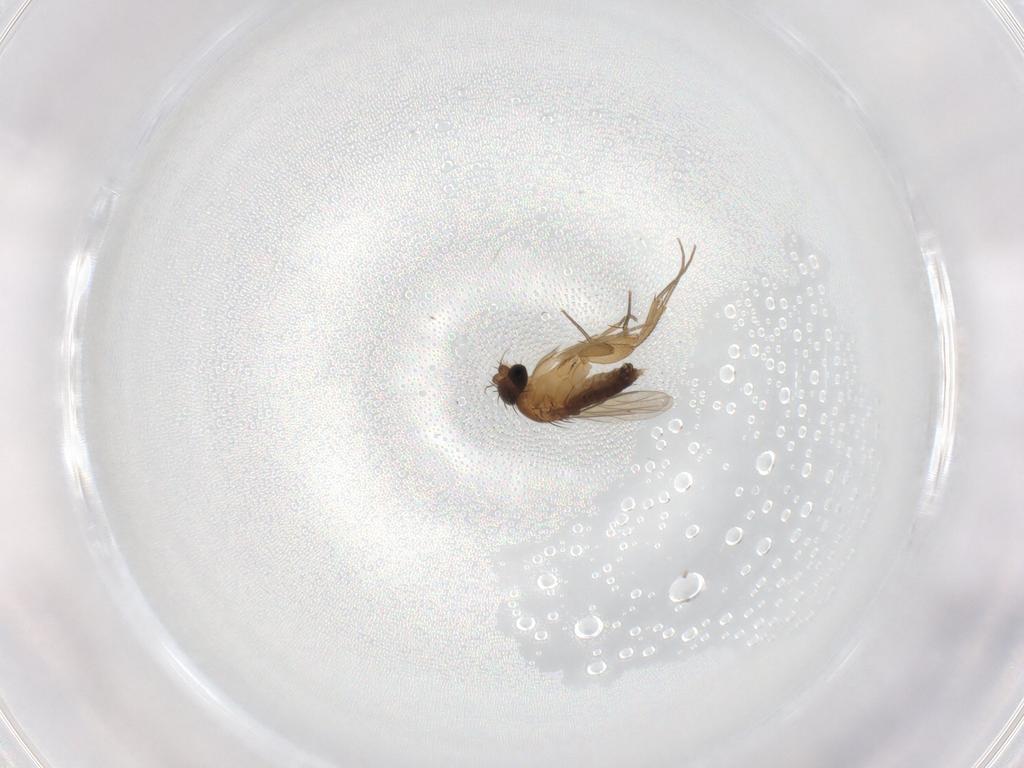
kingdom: Animalia
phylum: Arthropoda
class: Insecta
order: Diptera
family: Phoridae
